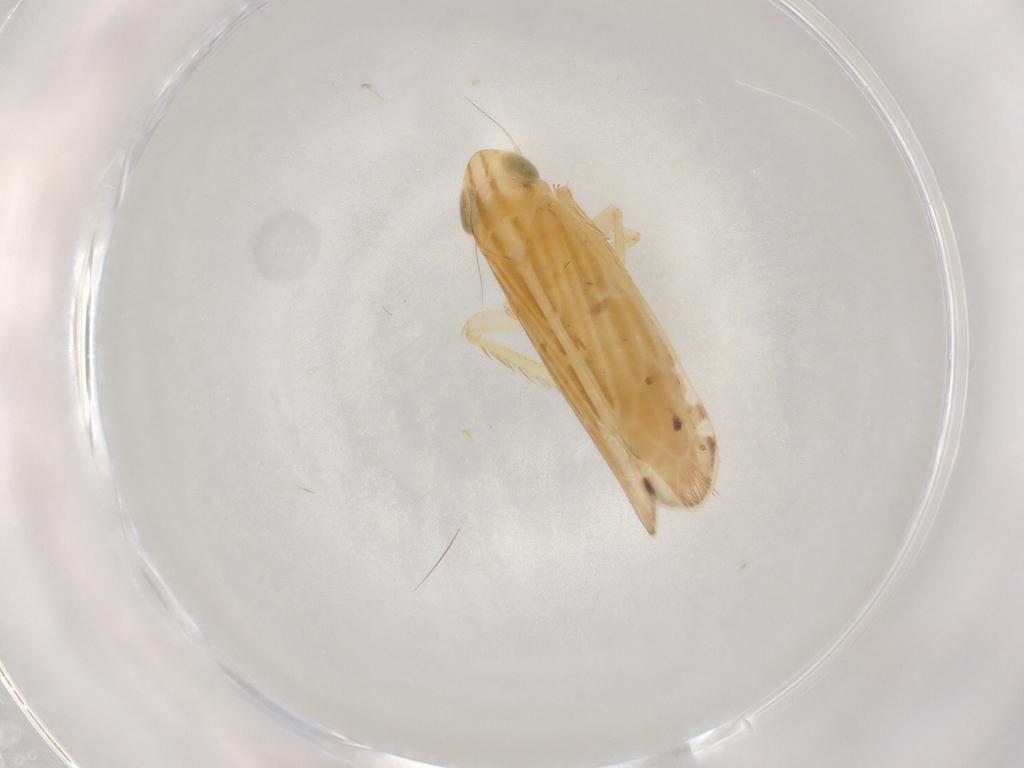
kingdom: Animalia
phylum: Arthropoda
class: Insecta
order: Hemiptera
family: Cicadellidae
